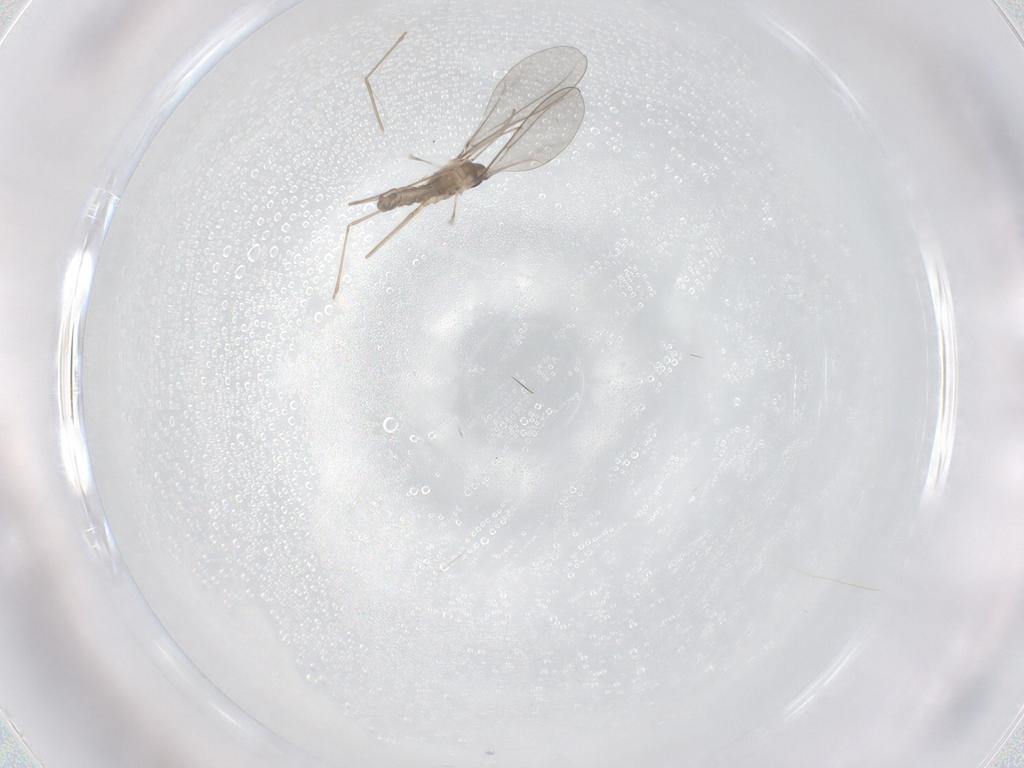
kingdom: Animalia
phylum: Arthropoda
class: Insecta
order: Diptera
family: Cecidomyiidae
